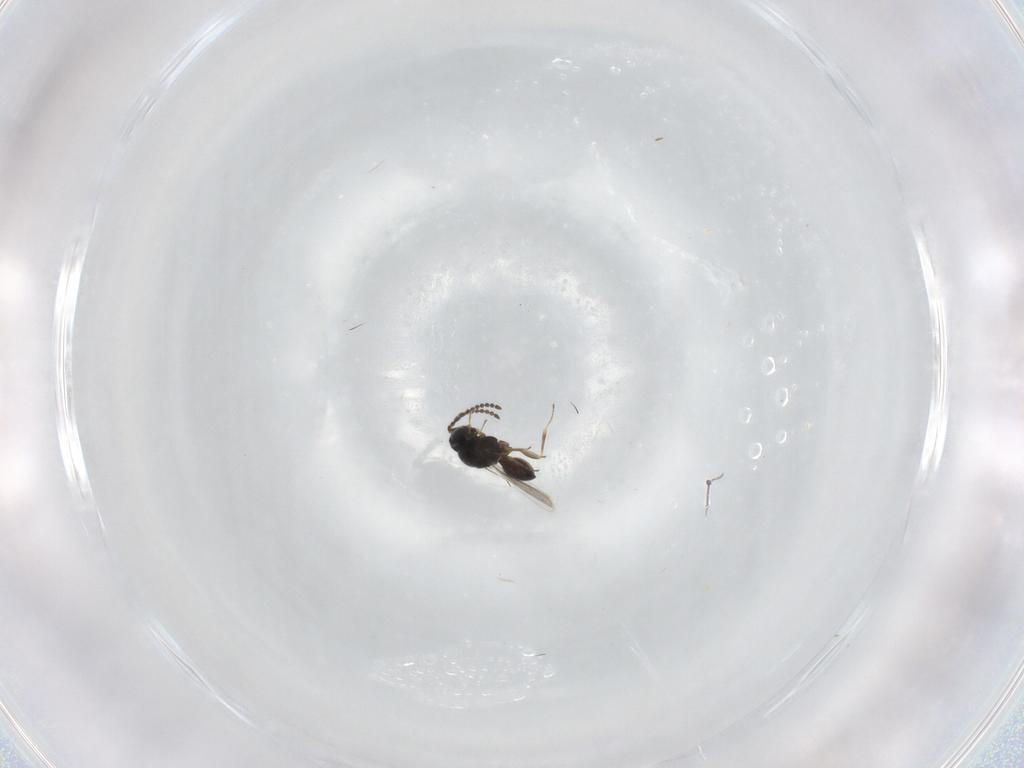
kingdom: Animalia
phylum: Arthropoda
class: Insecta
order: Hymenoptera
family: Scelionidae
